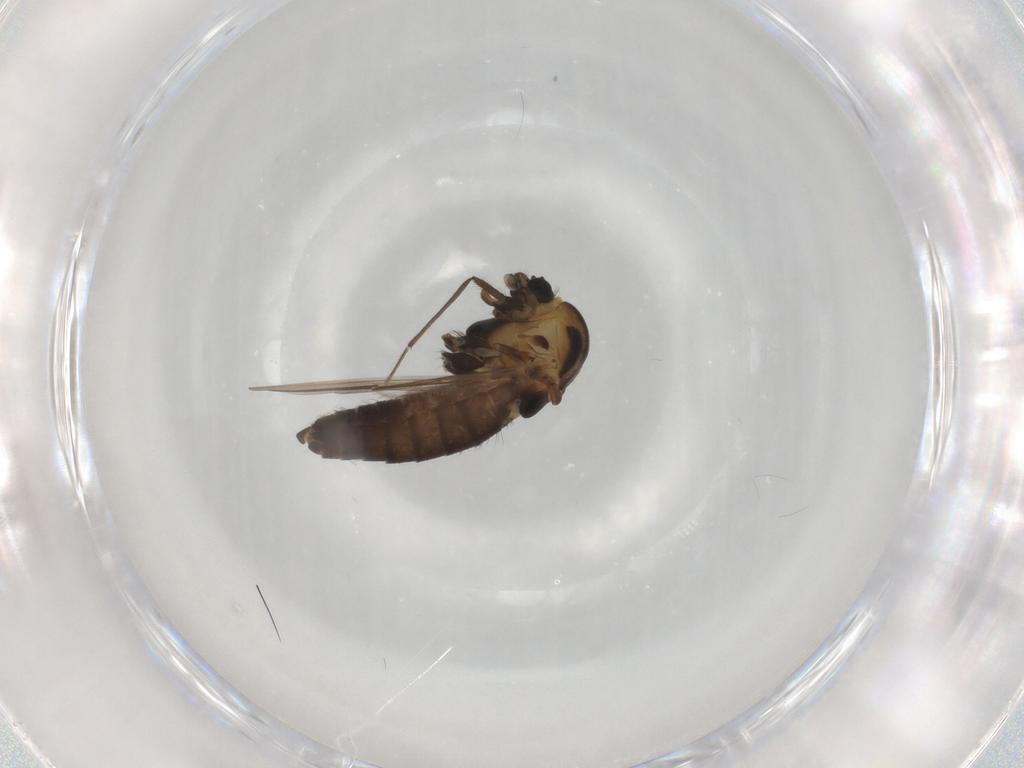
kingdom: Animalia
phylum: Arthropoda
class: Insecta
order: Diptera
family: Chironomidae
